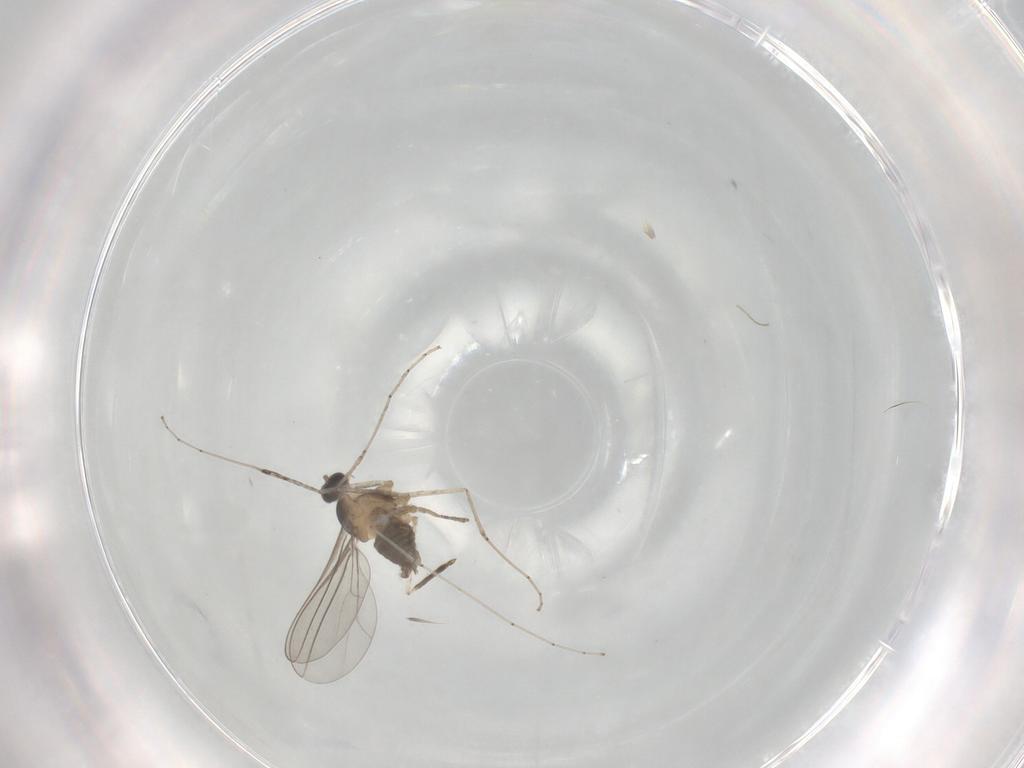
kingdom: Animalia
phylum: Arthropoda
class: Insecta
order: Diptera
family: Cecidomyiidae
